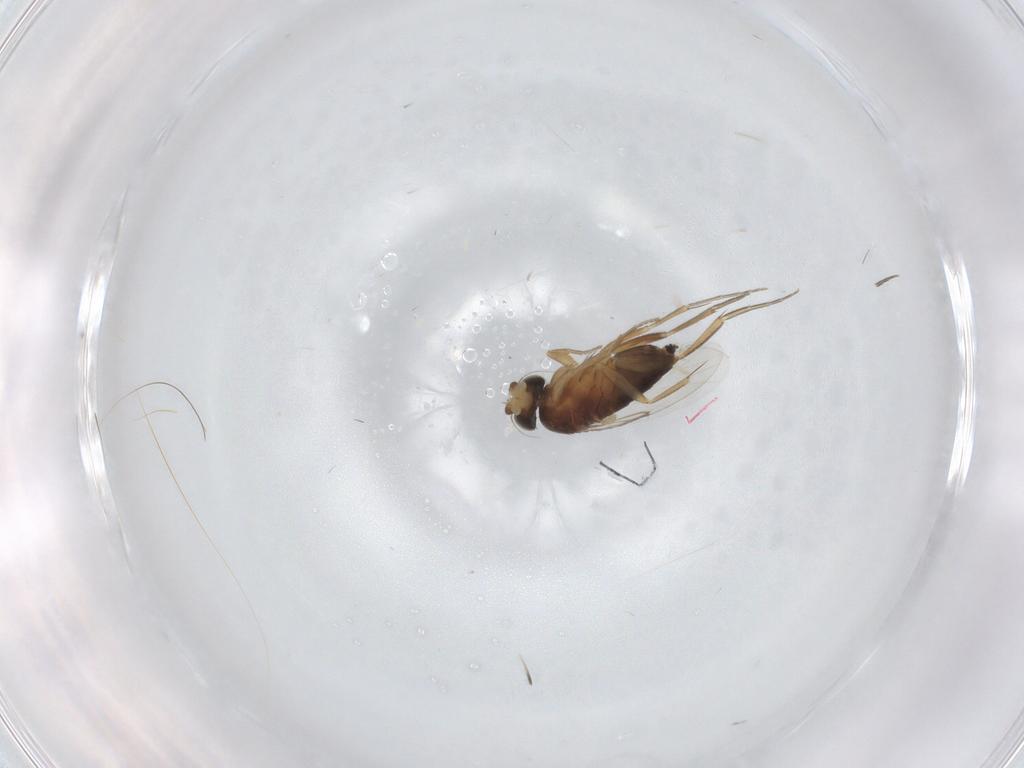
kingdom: Animalia
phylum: Arthropoda
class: Insecta
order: Diptera
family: Phoridae
